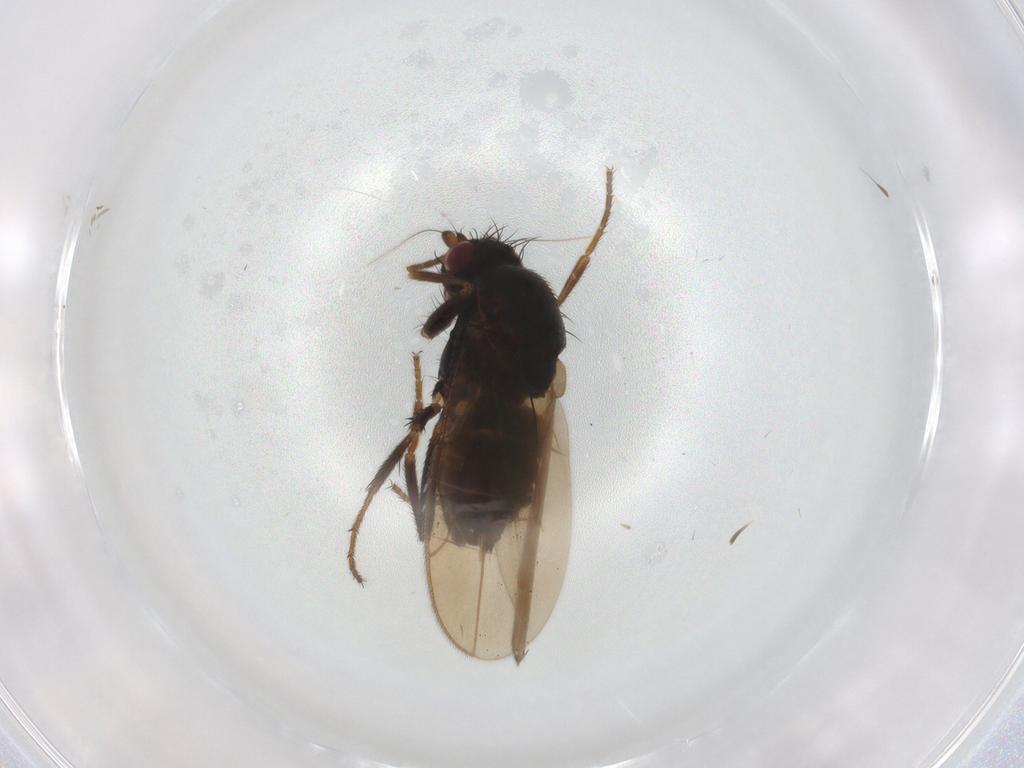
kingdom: Animalia
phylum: Arthropoda
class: Insecta
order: Diptera
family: Sphaeroceridae
